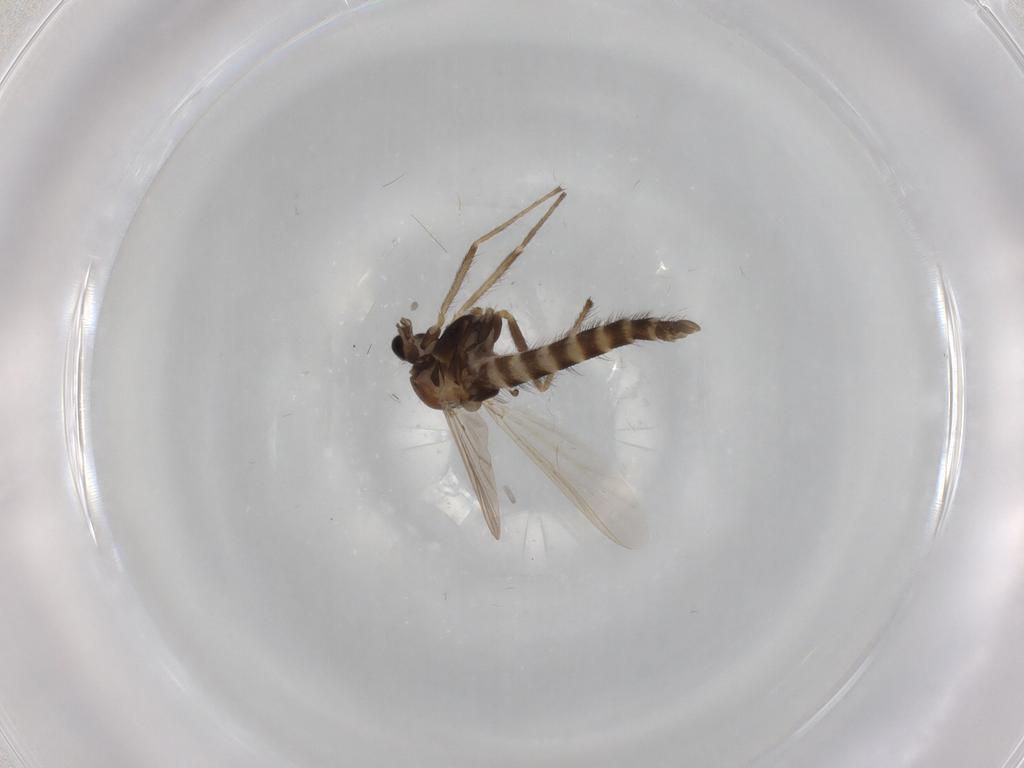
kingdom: Animalia
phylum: Arthropoda
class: Insecta
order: Diptera
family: Chironomidae
